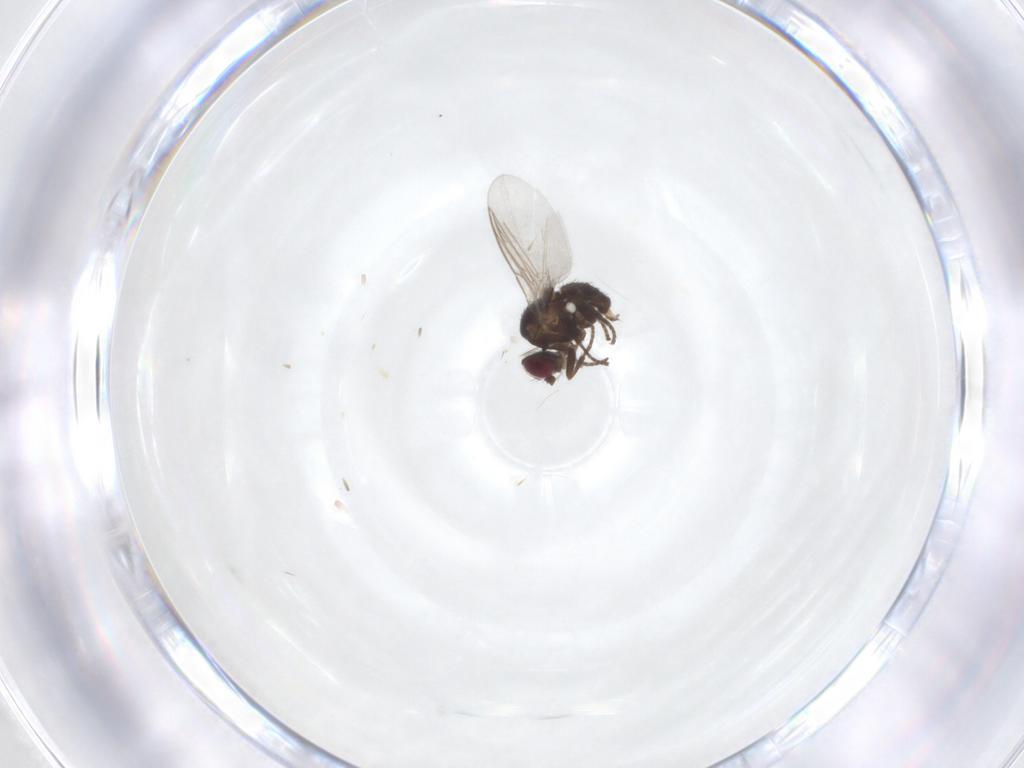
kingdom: Animalia
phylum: Arthropoda
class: Insecta
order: Diptera
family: Agromyzidae
